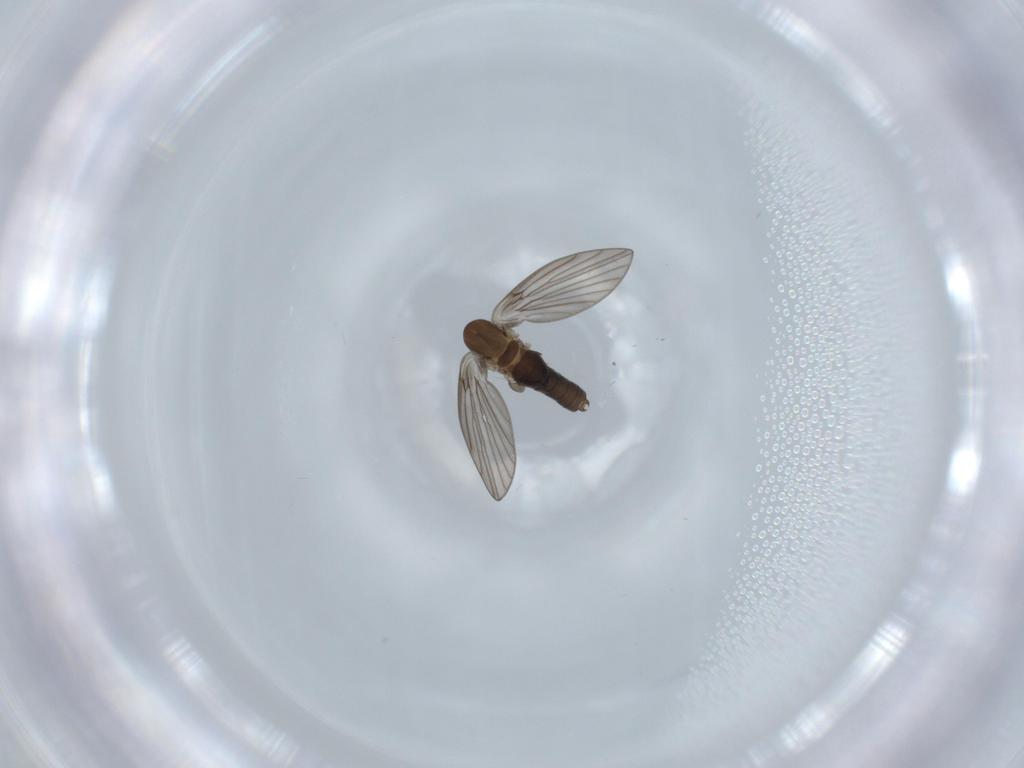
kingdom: Animalia
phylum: Arthropoda
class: Insecta
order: Diptera
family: Psychodidae
